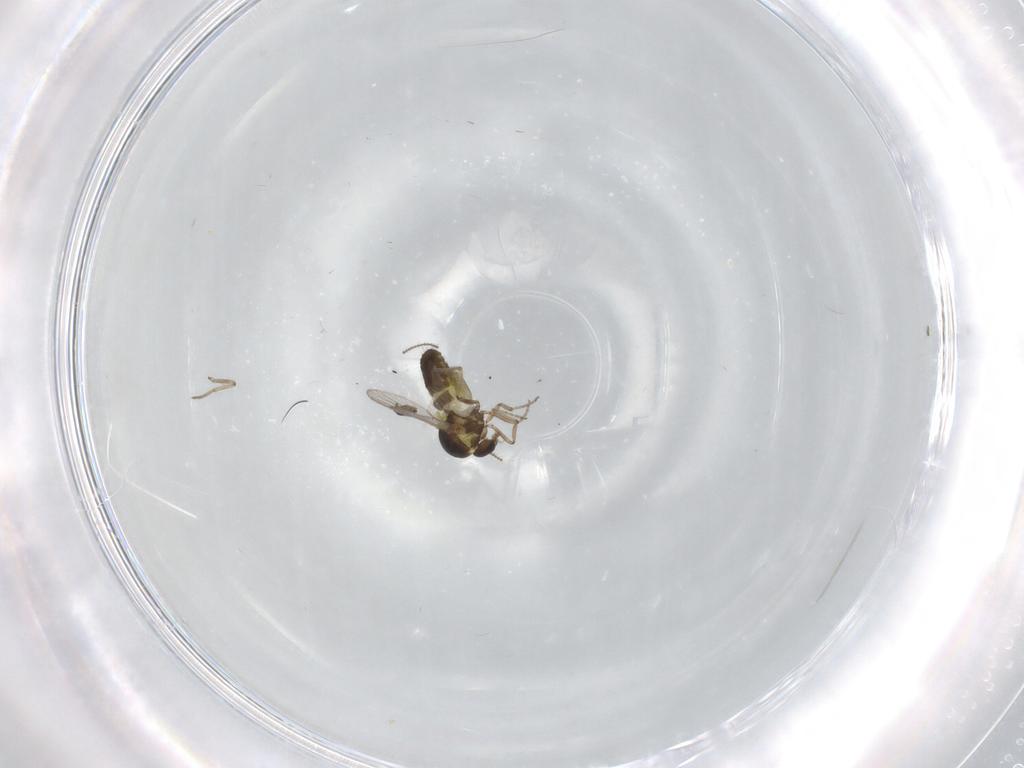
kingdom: Animalia
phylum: Arthropoda
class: Insecta
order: Diptera
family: Ceratopogonidae
